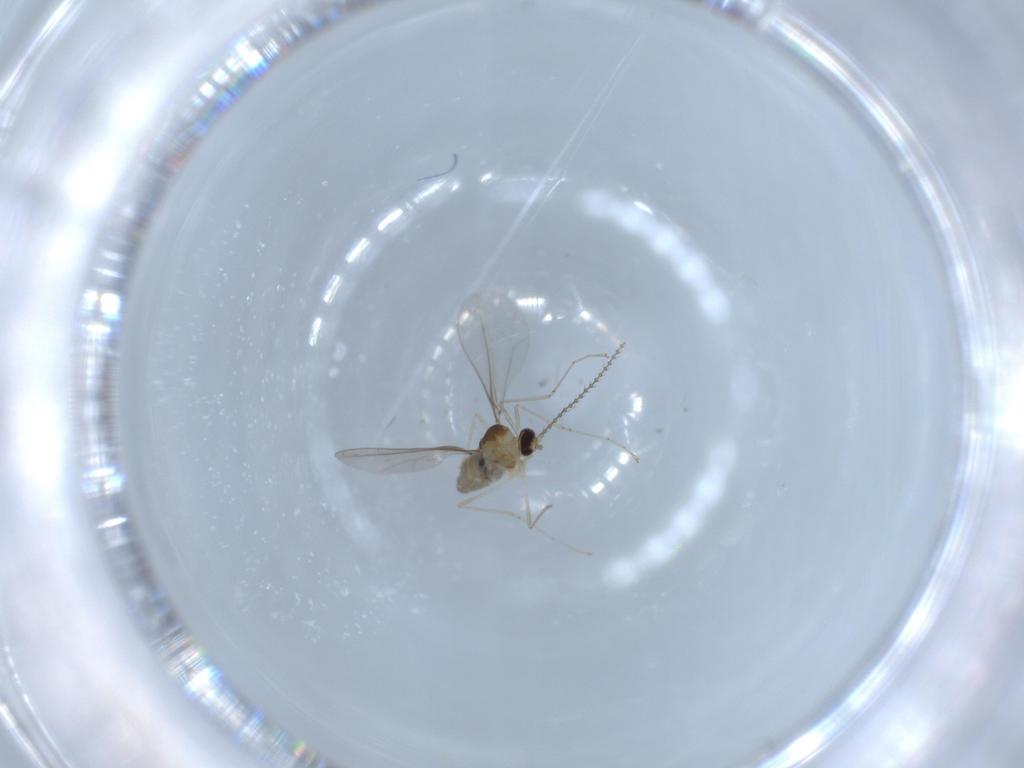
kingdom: Animalia
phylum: Arthropoda
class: Insecta
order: Diptera
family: Cecidomyiidae
